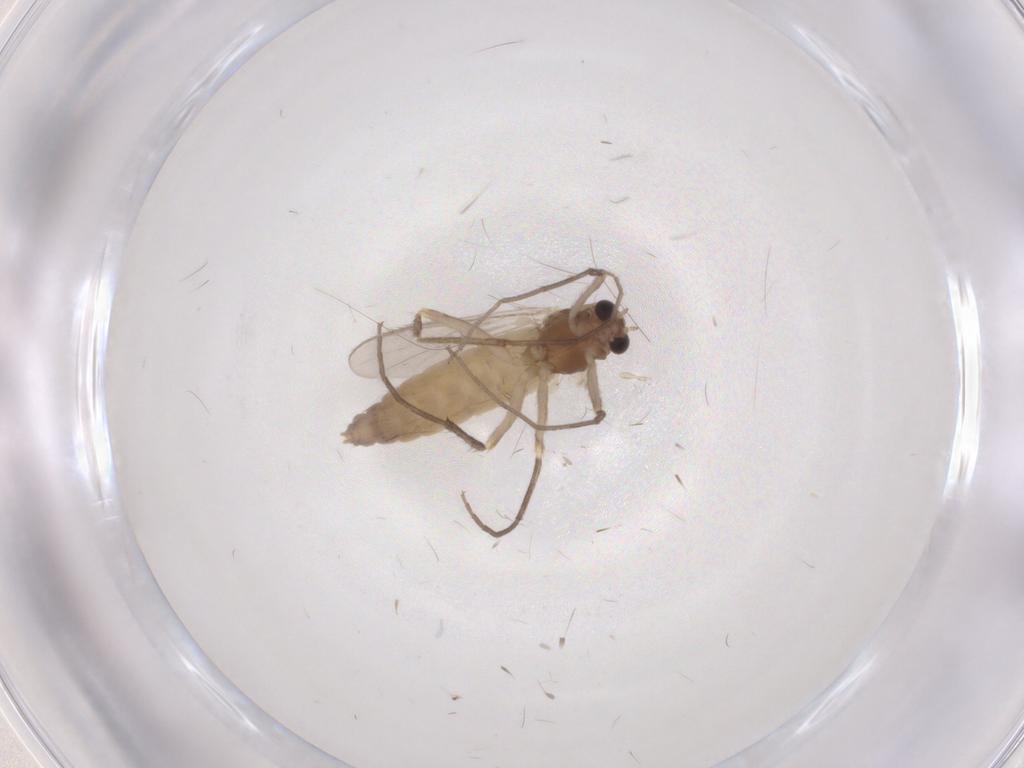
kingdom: Animalia
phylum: Arthropoda
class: Insecta
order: Diptera
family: Chironomidae
